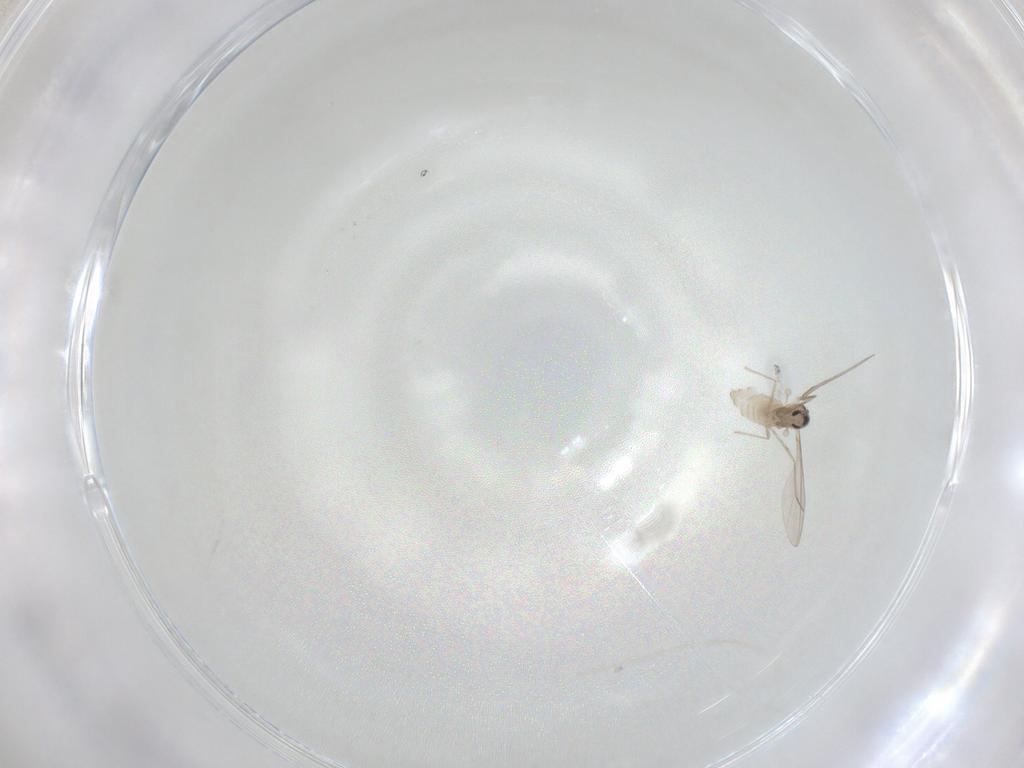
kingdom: Animalia
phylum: Arthropoda
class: Insecta
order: Diptera
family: Cecidomyiidae
